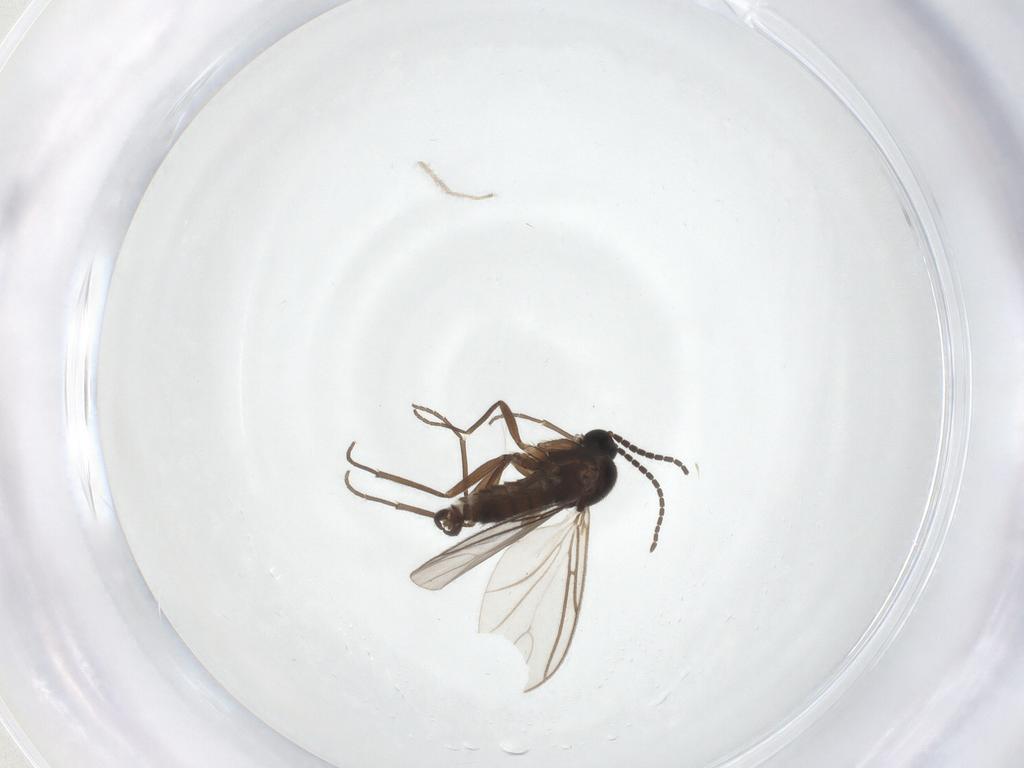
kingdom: Animalia
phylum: Arthropoda
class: Insecta
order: Diptera
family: Sciaridae
